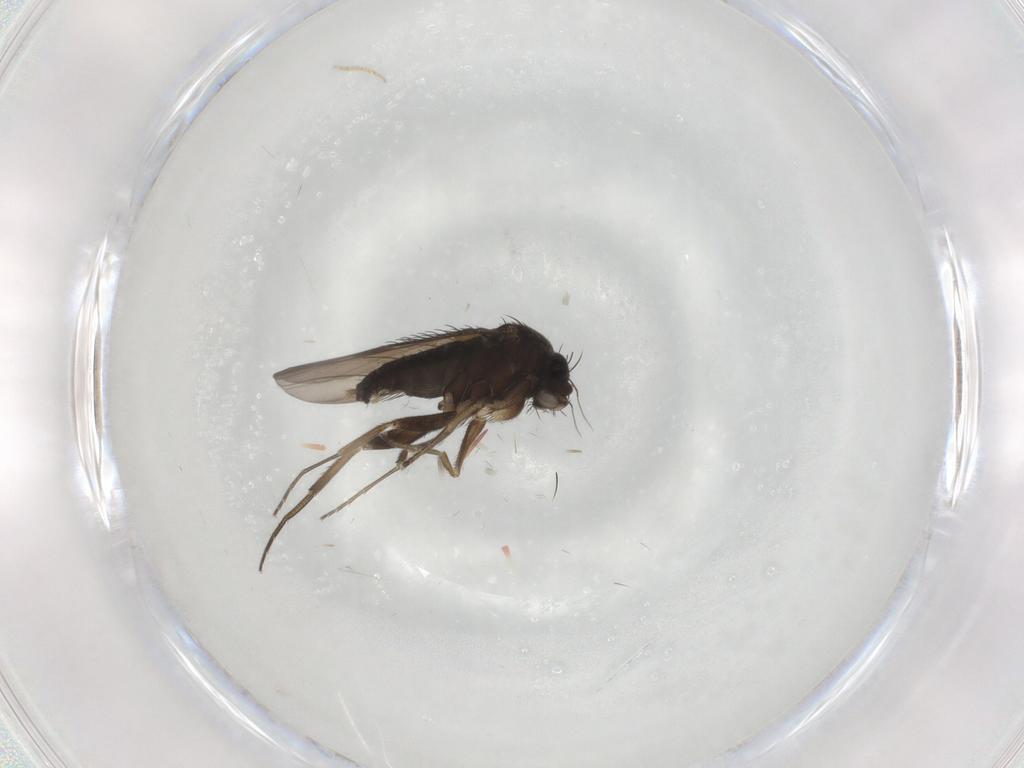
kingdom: Animalia
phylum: Arthropoda
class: Insecta
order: Diptera
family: Phoridae
